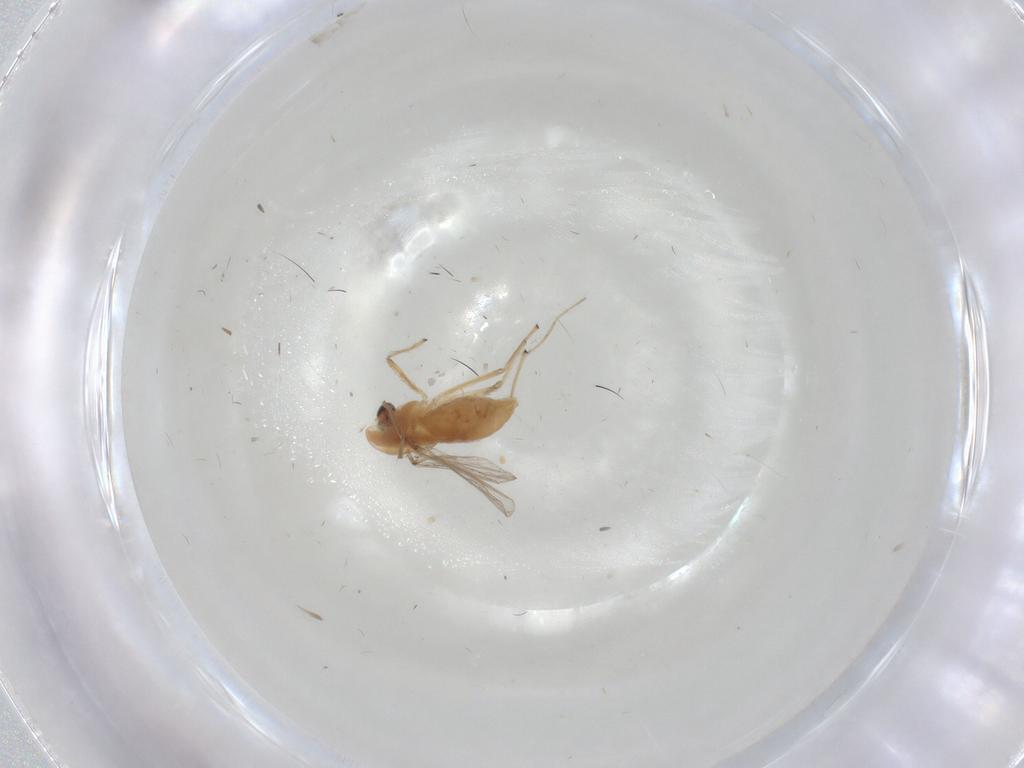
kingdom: Animalia
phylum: Arthropoda
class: Insecta
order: Diptera
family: Chironomidae
